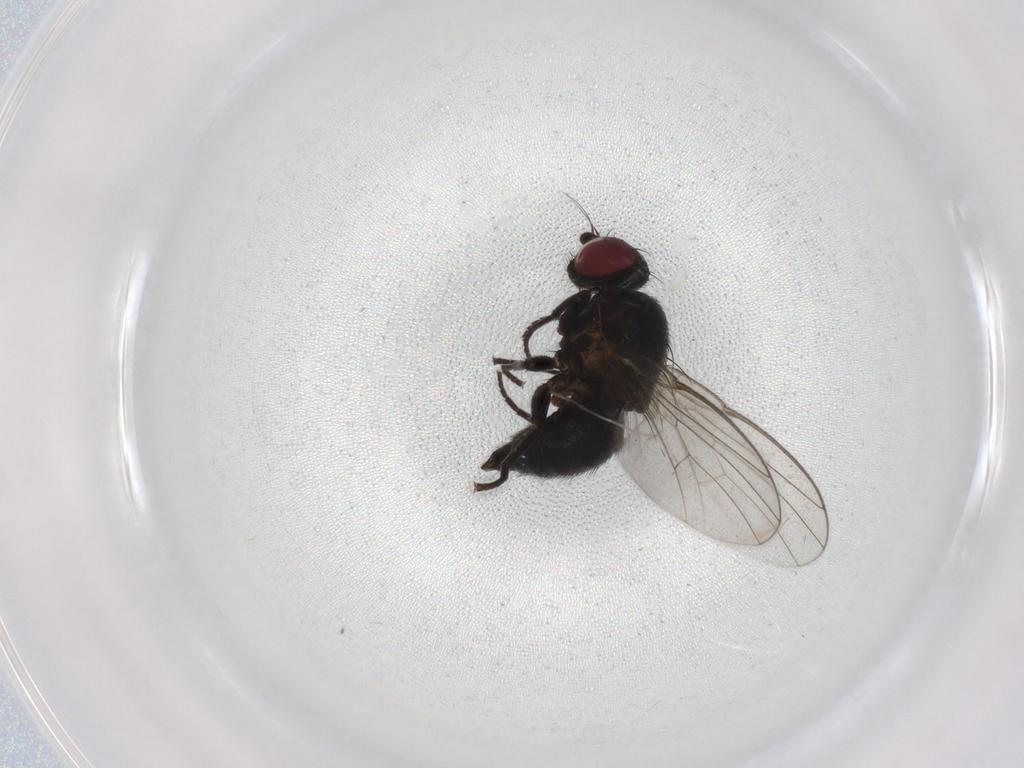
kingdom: Animalia
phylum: Arthropoda
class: Insecta
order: Diptera
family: Agromyzidae
